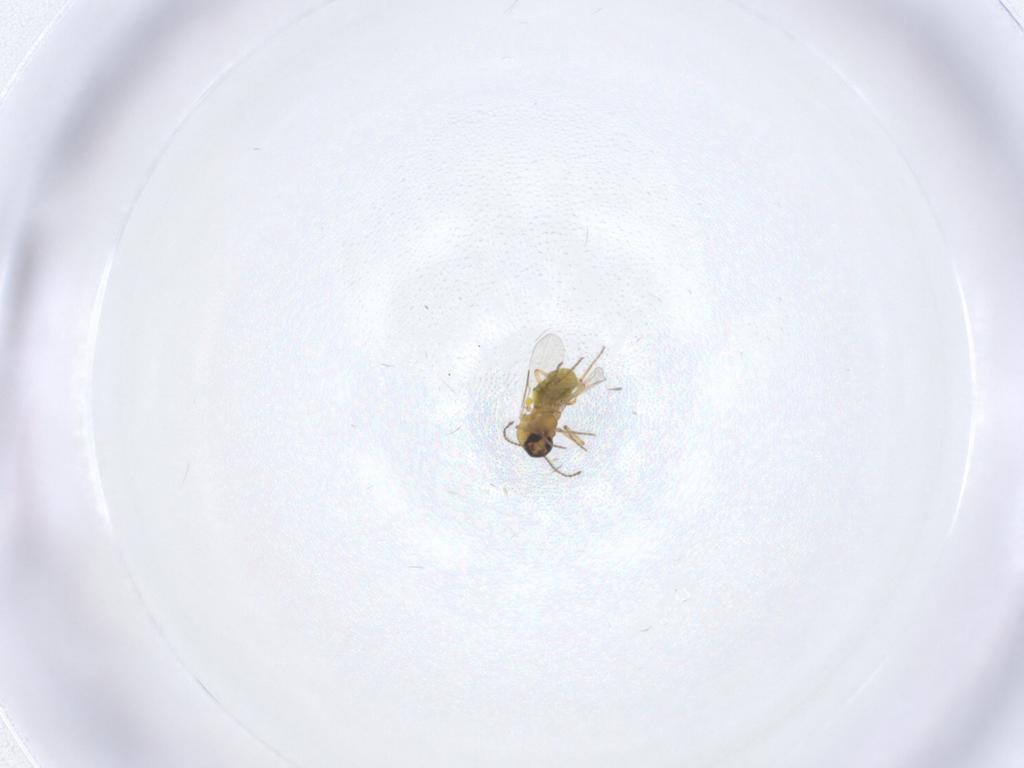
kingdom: Animalia
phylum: Arthropoda
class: Insecta
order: Diptera
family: Ceratopogonidae
